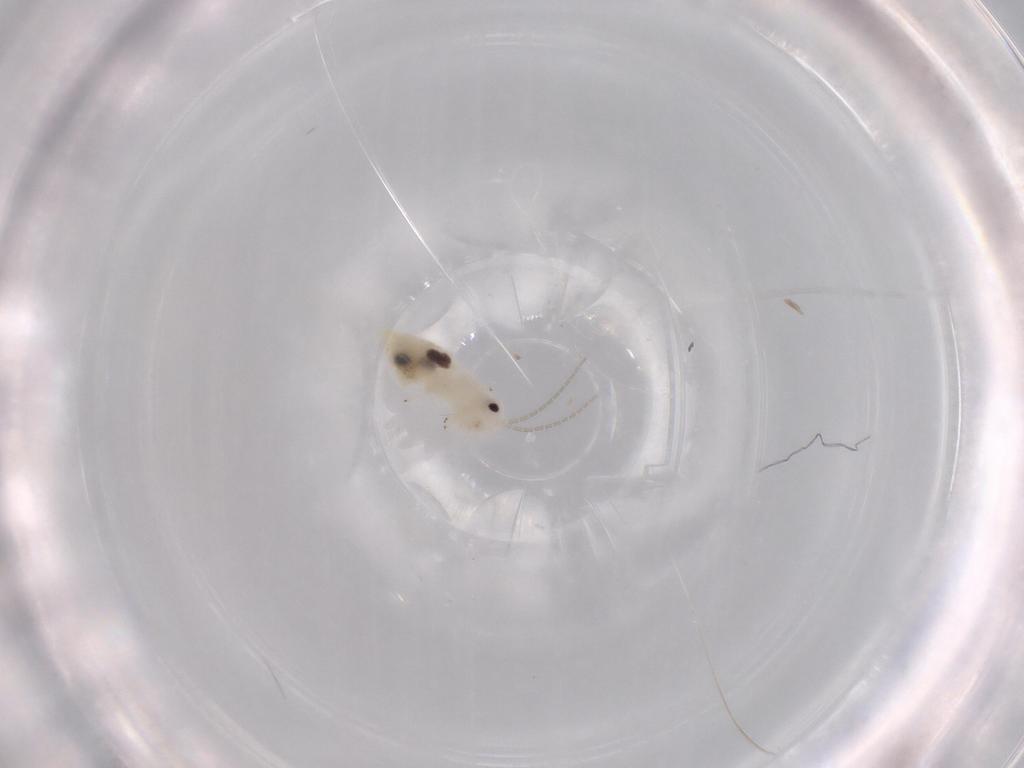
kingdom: Animalia
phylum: Arthropoda
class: Insecta
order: Psocodea
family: Caeciliusidae
